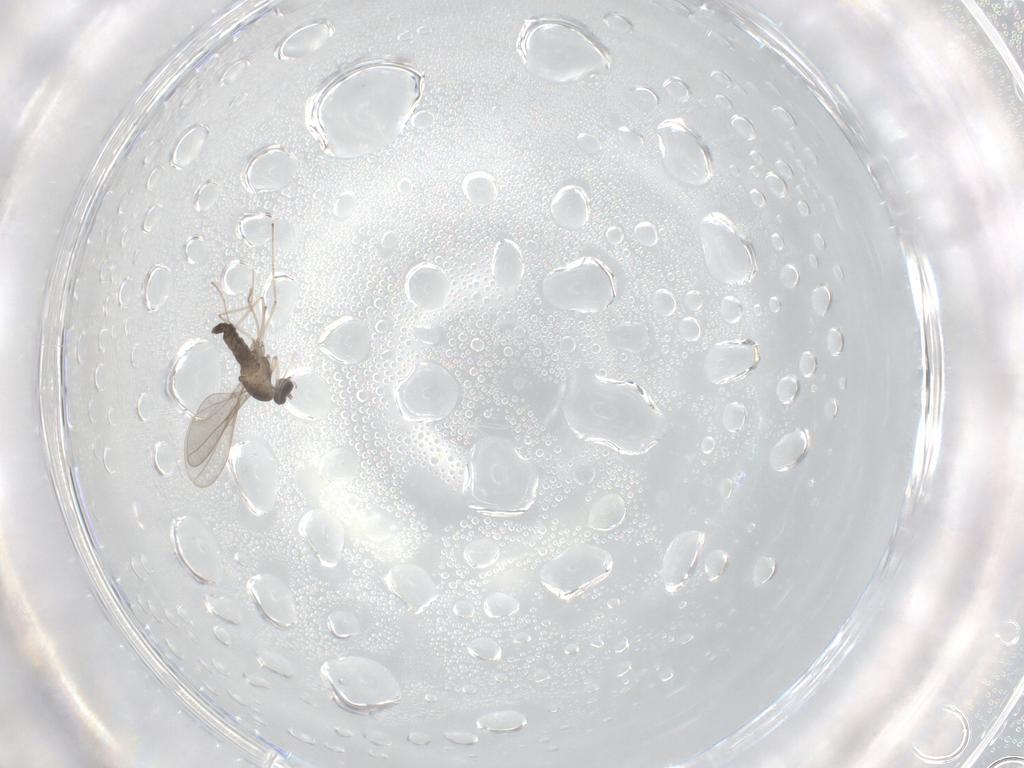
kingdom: Animalia
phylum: Arthropoda
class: Insecta
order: Diptera
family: Cecidomyiidae
